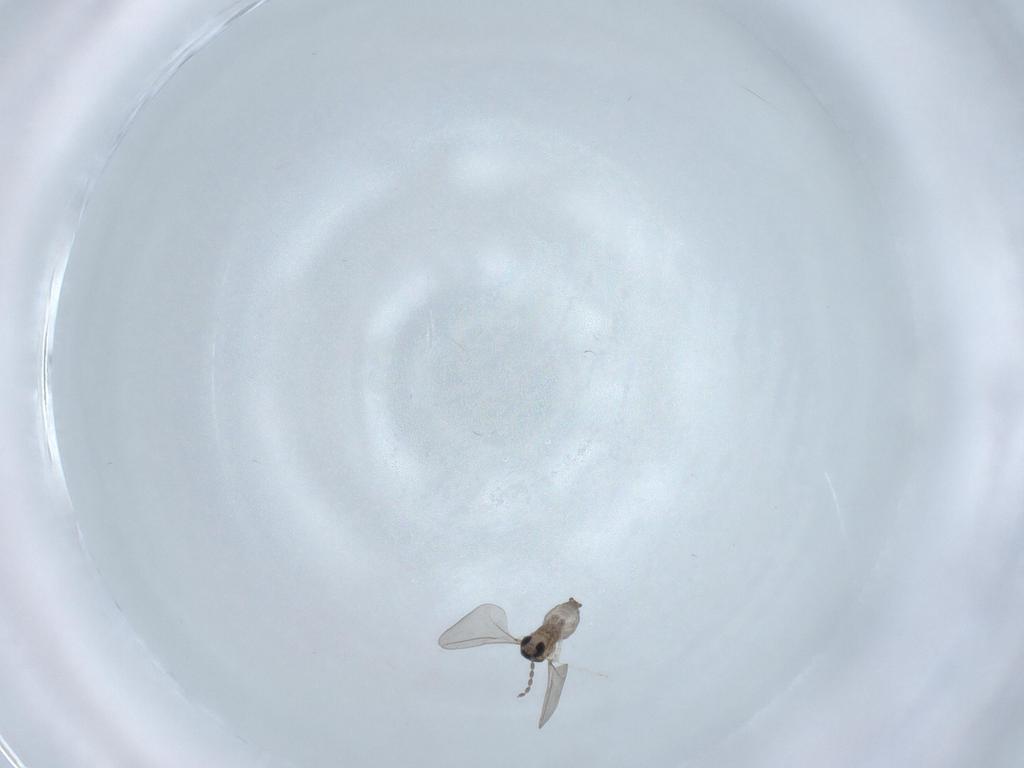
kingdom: Animalia
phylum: Arthropoda
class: Insecta
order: Diptera
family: Cecidomyiidae
